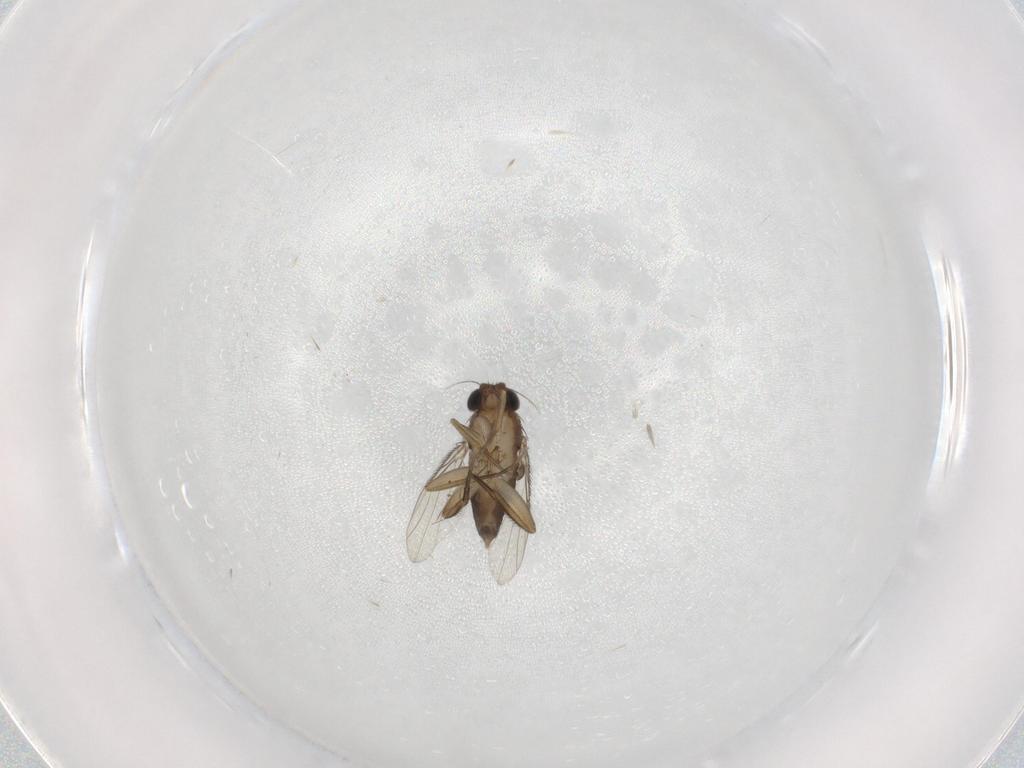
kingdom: Animalia
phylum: Arthropoda
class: Insecta
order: Diptera
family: Phoridae
